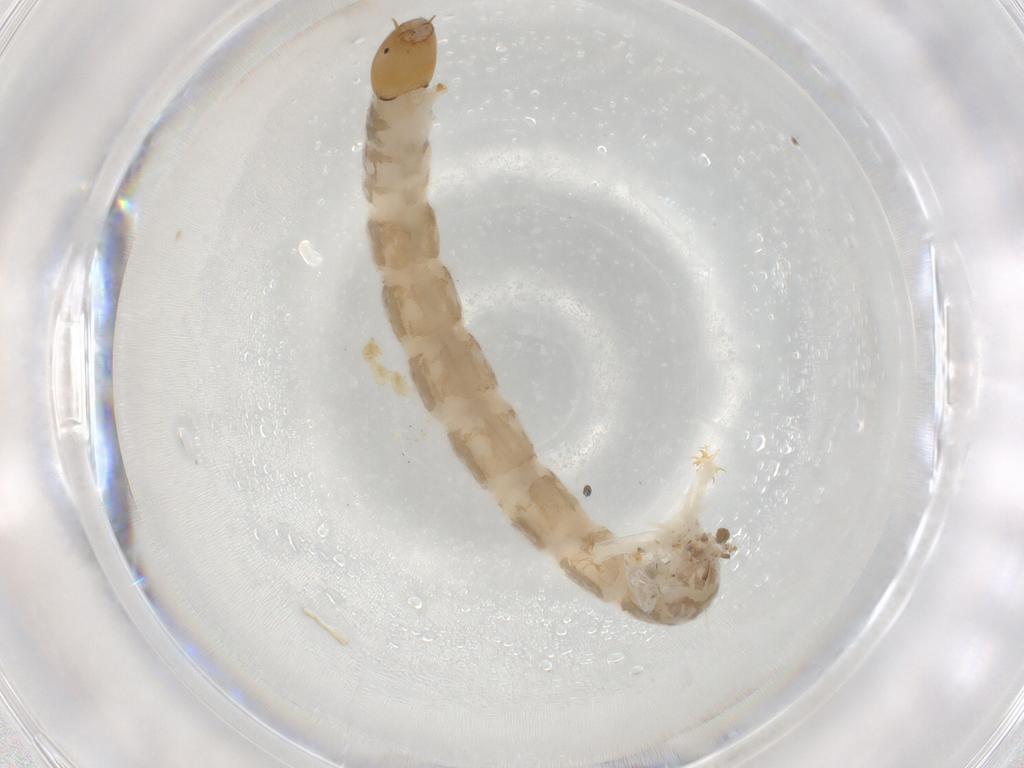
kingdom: Animalia
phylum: Arthropoda
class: Insecta
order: Diptera
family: Chironomidae
